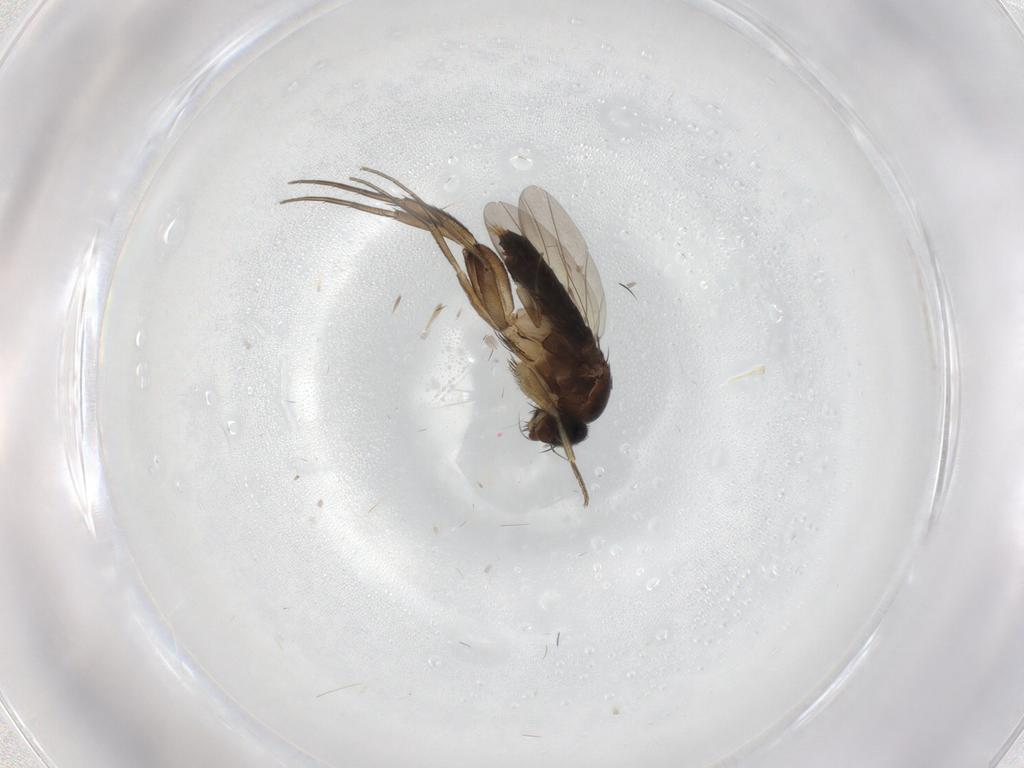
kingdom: Animalia
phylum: Arthropoda
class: Insecta
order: Diptera
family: Phoridae
